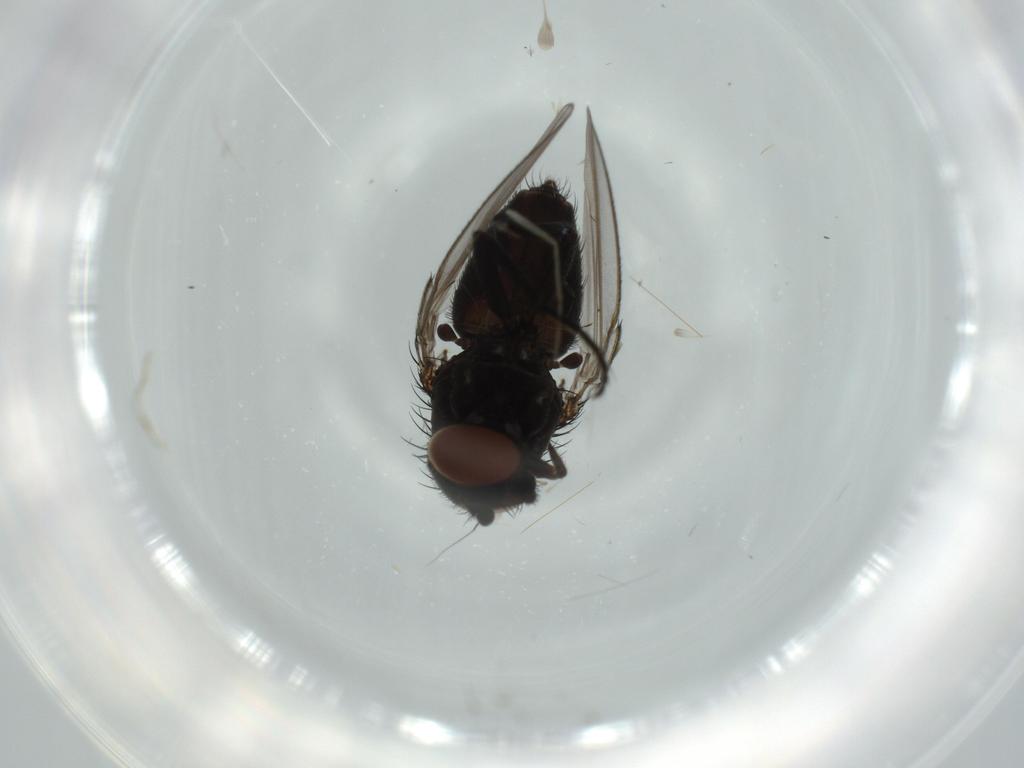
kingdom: Animalia
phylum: Arthropoda
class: Insecta
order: Diptera
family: Milichiidae
